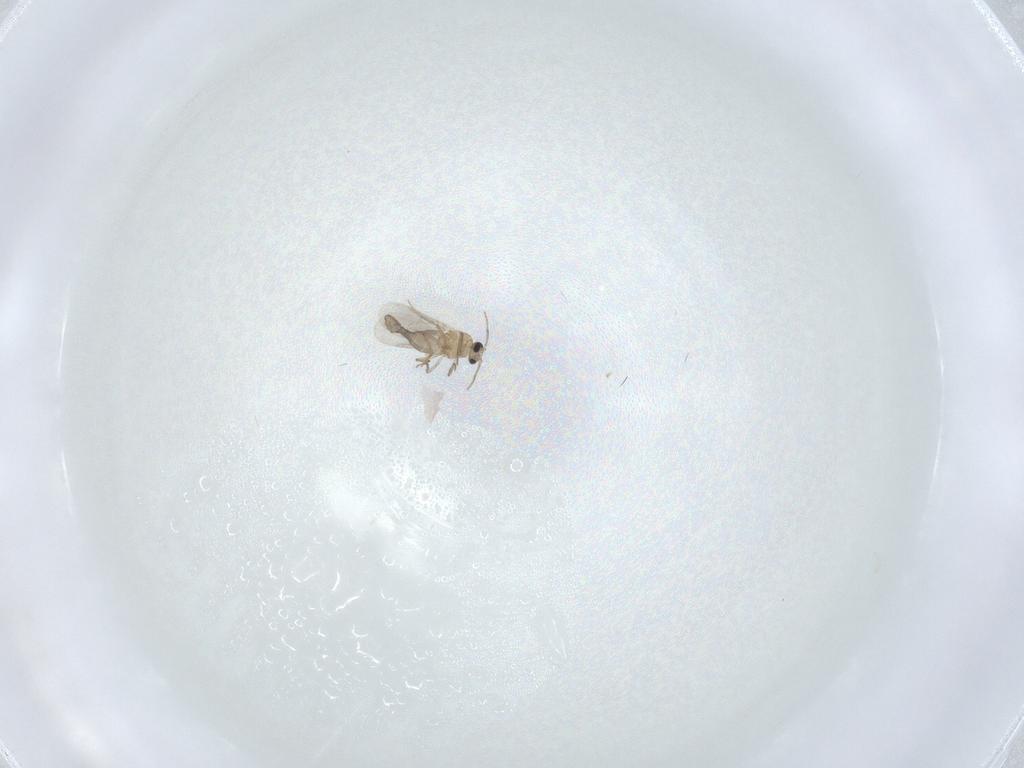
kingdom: Animalia
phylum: Arthropoda
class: Insecta
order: Diptera
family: Ceratopogonidae
